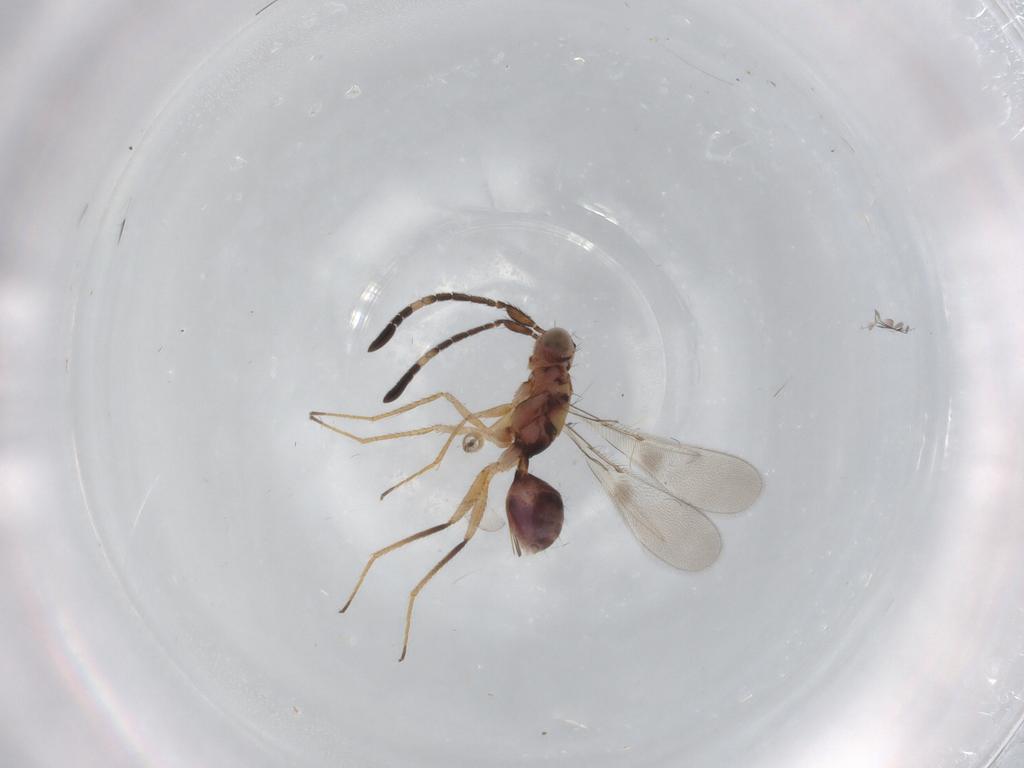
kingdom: Animalia
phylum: Arthropoda
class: Insecta
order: Hymenoptera
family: Mymaridae
